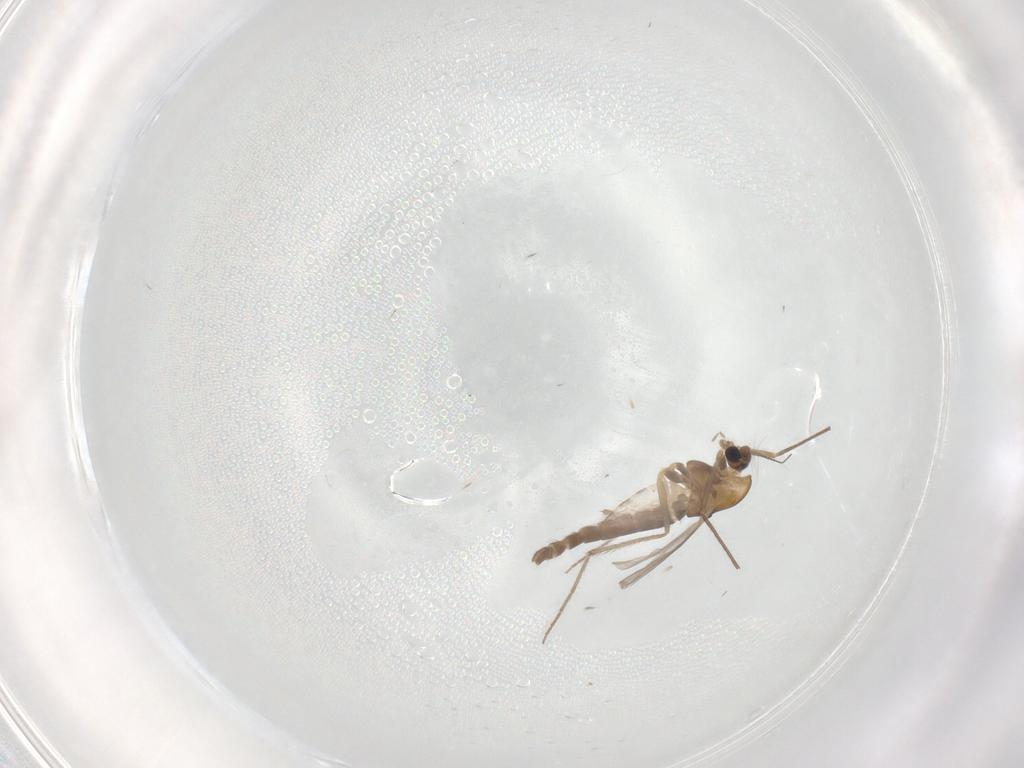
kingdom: Animalia
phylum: Arthropoda
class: Insecta
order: Diptera
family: Chironomidae
